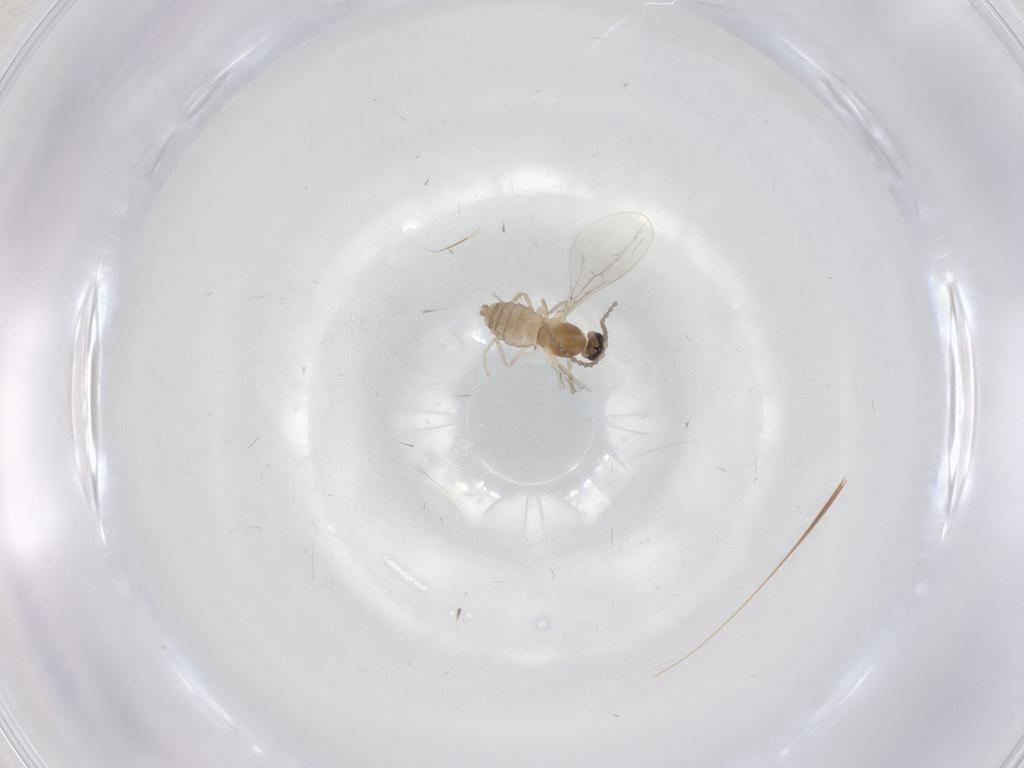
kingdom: Animalia
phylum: Arthropoda
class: Insecta
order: Diptera
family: Cecidomyiidae
